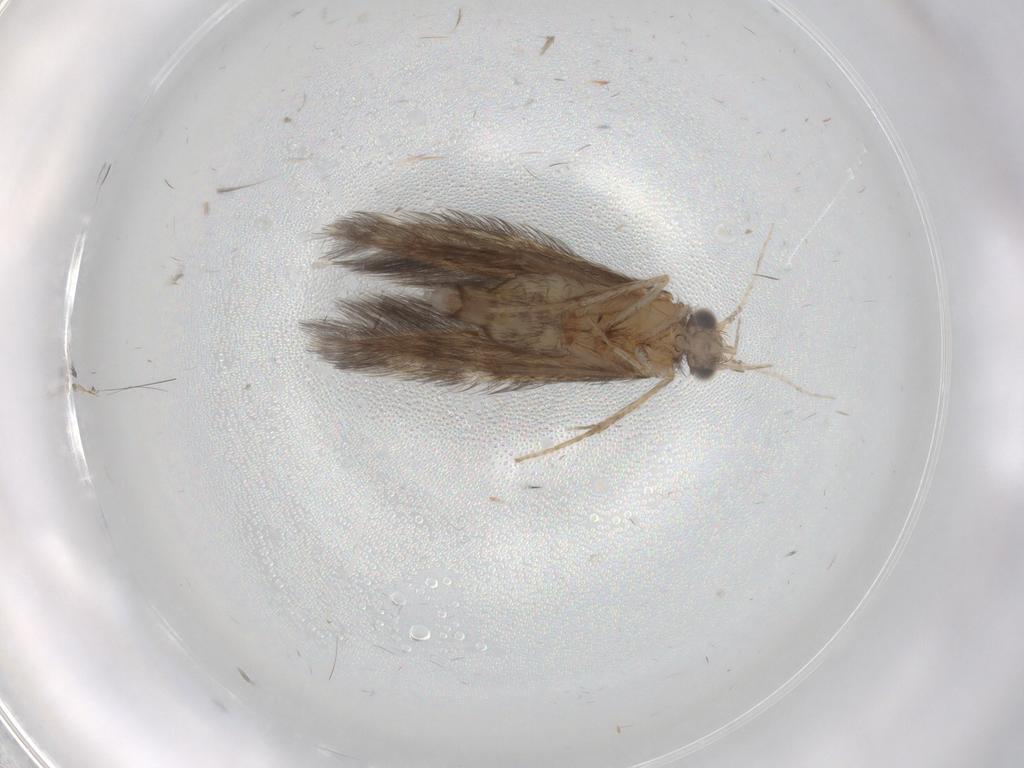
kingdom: Animalia
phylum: Arthropoda
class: Insecta
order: Trichoptera
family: Hydroptilidae
